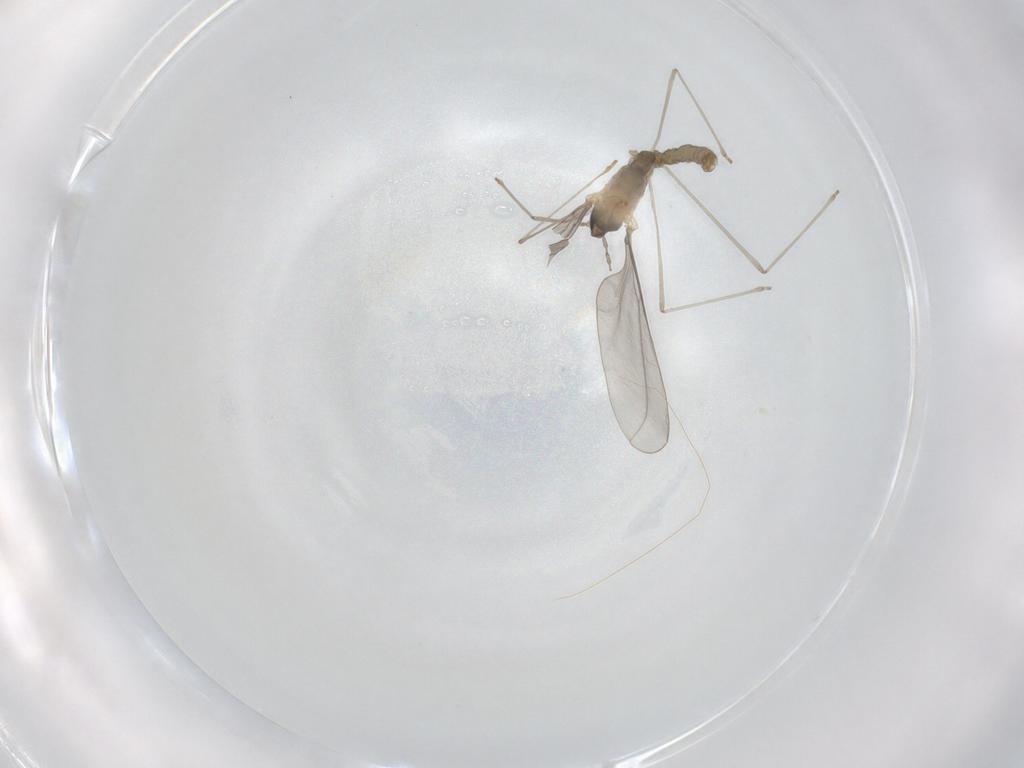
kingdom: Animalia
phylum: Arthropoda
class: Insecta
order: Diptera
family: Cecidomyiidae
